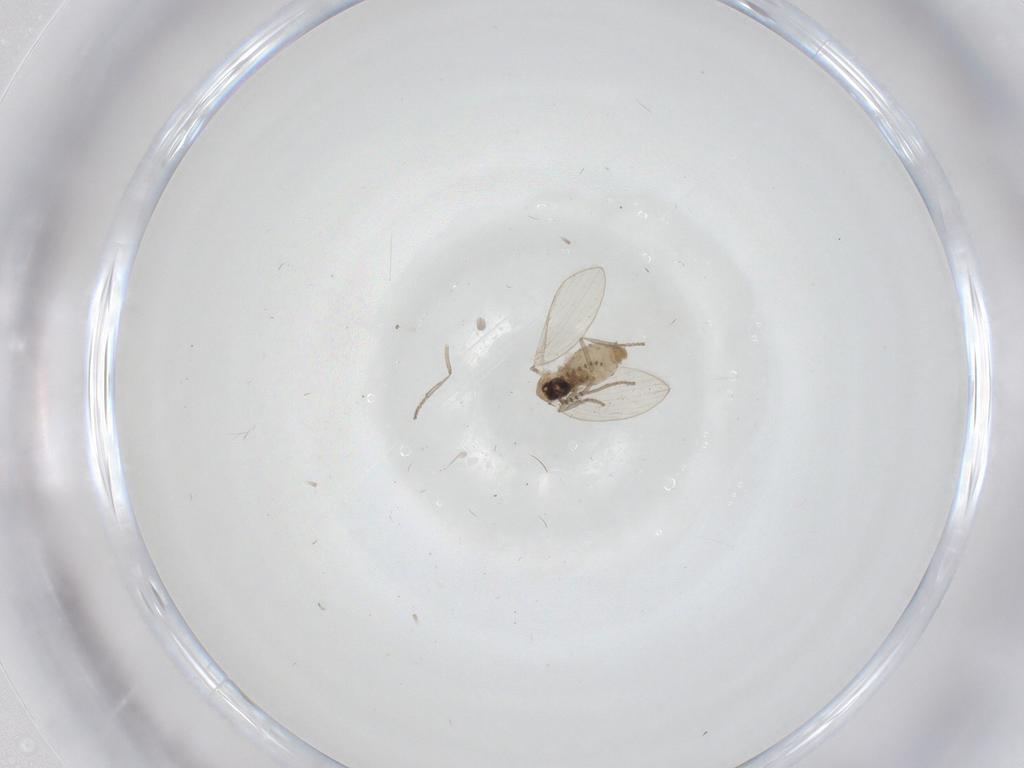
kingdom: Animalia
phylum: Arthropoda
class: Insecta
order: Diptera
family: Psychodidae
